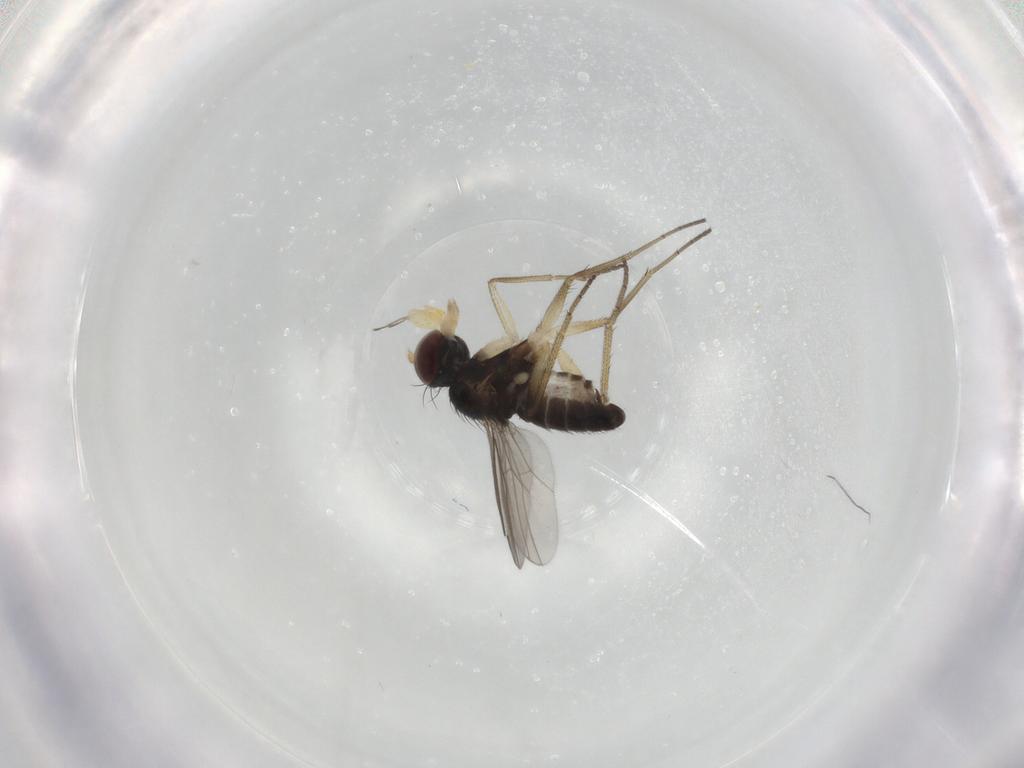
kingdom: Animalia
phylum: Arthropoda
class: Insecta
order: Diptera
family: Dolichopodidae
